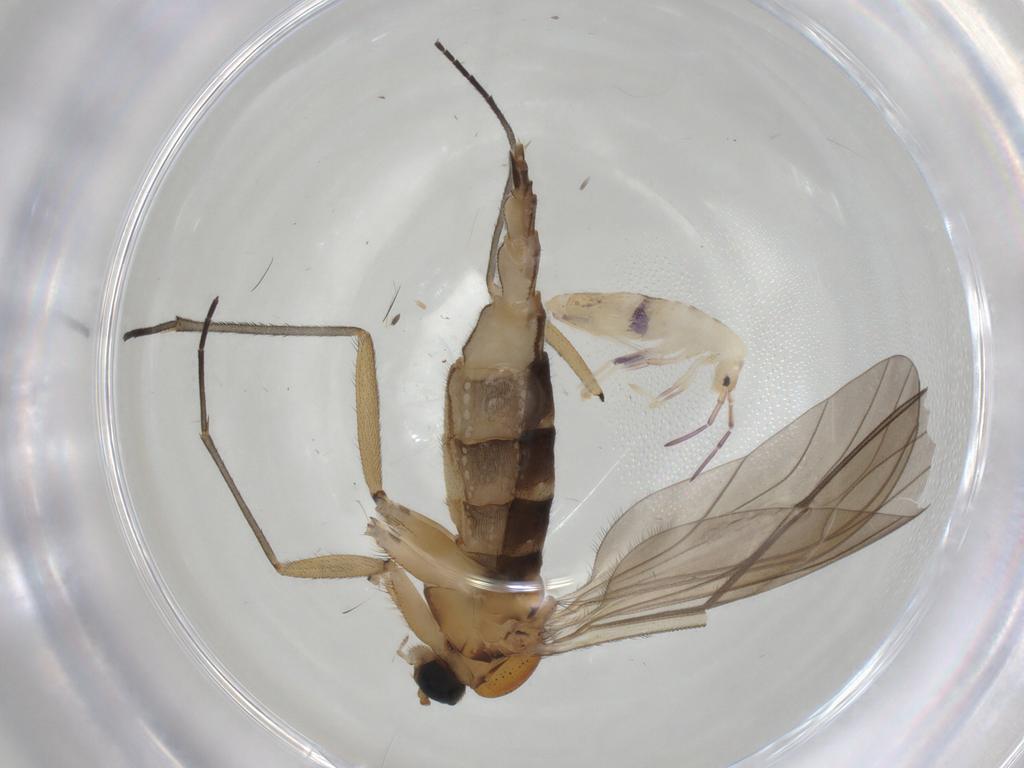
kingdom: Animalia
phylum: Arthropoda
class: Insecta
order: Diptera
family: Sciaridae
